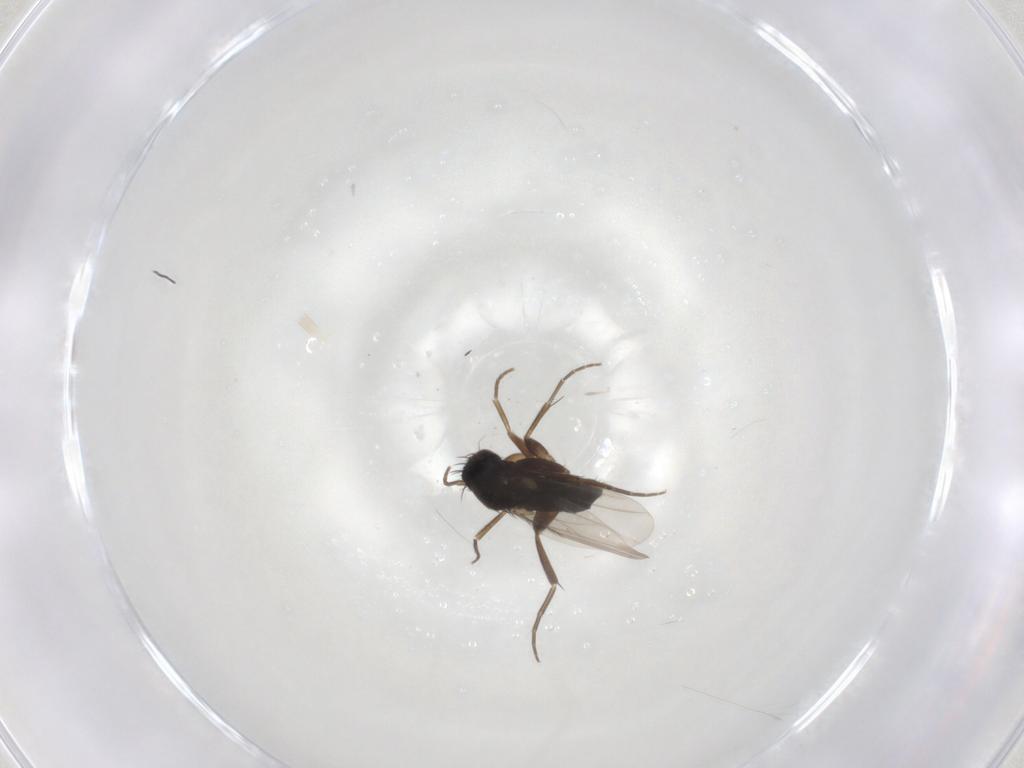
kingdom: Animalia
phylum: Arthropoda
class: Insecta
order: Diptera
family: Phoridae
